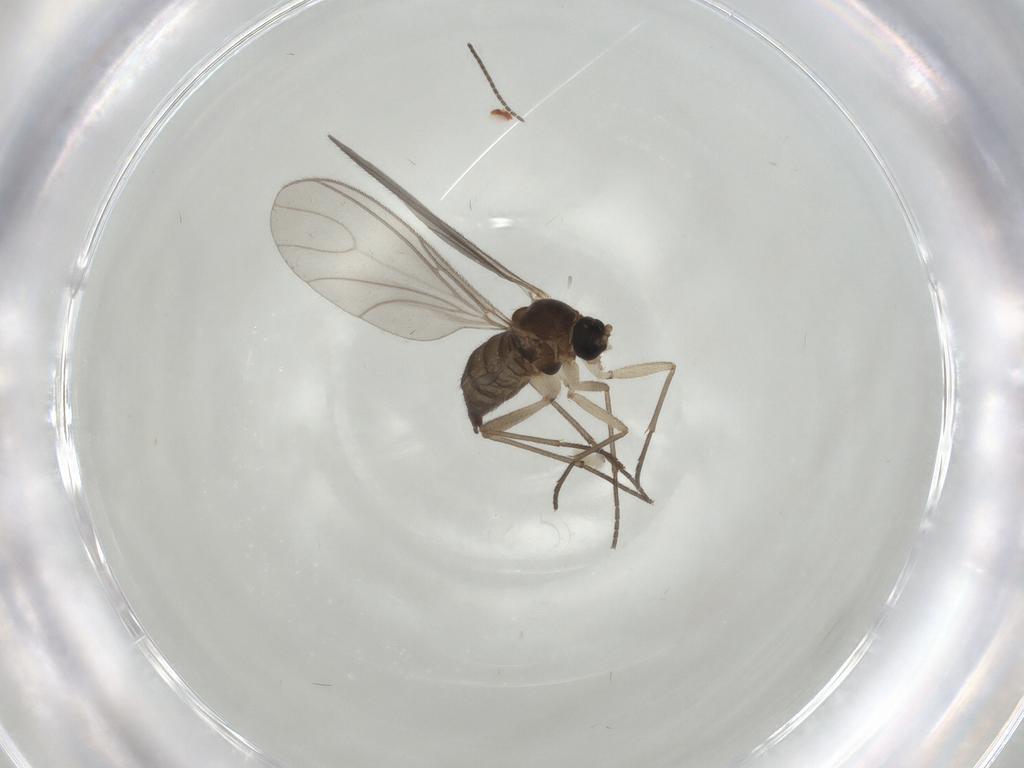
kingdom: Animalia
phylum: Arthropoda
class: Insecta
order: Diptera
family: Sciaridae
